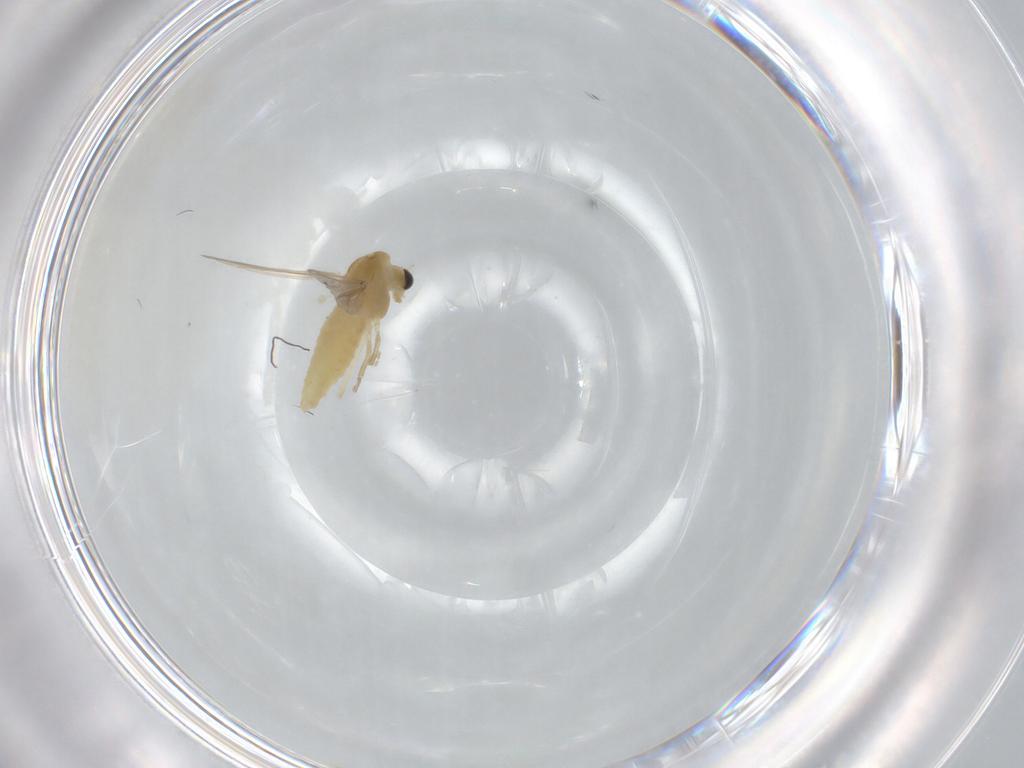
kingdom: Animalia
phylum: Arthropoda
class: Insecta
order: Diptera
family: Chironomidae
